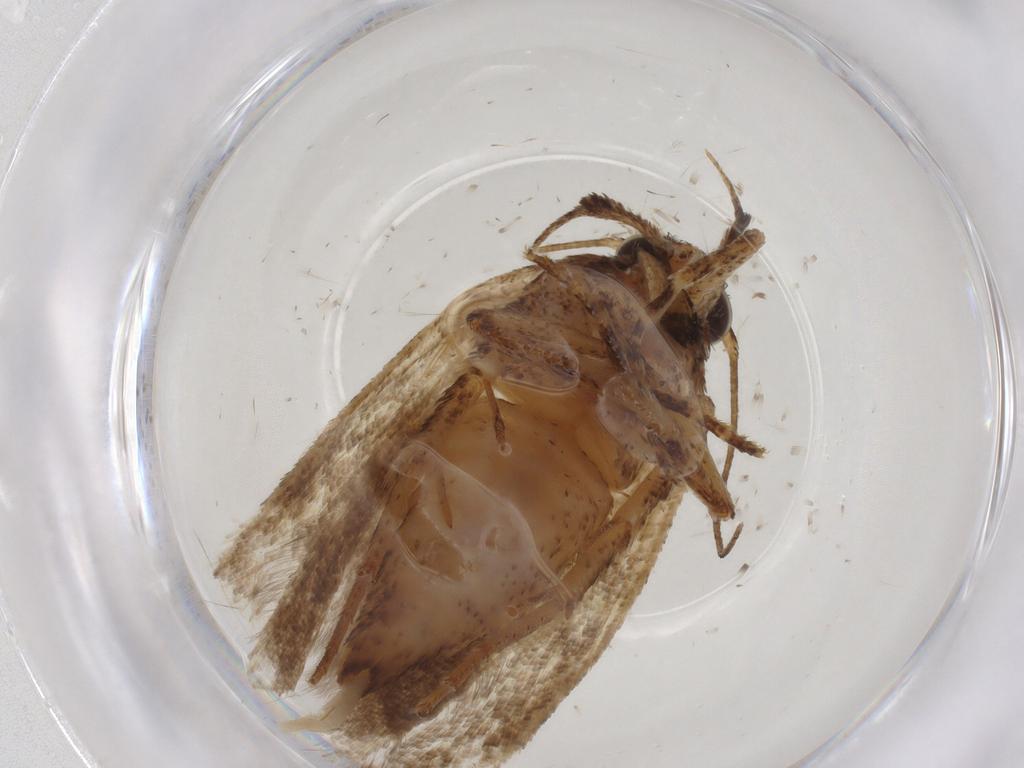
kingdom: Animalia
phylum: Arthropoda
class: Insecta
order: Lepidoptera
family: Gelechiidae
